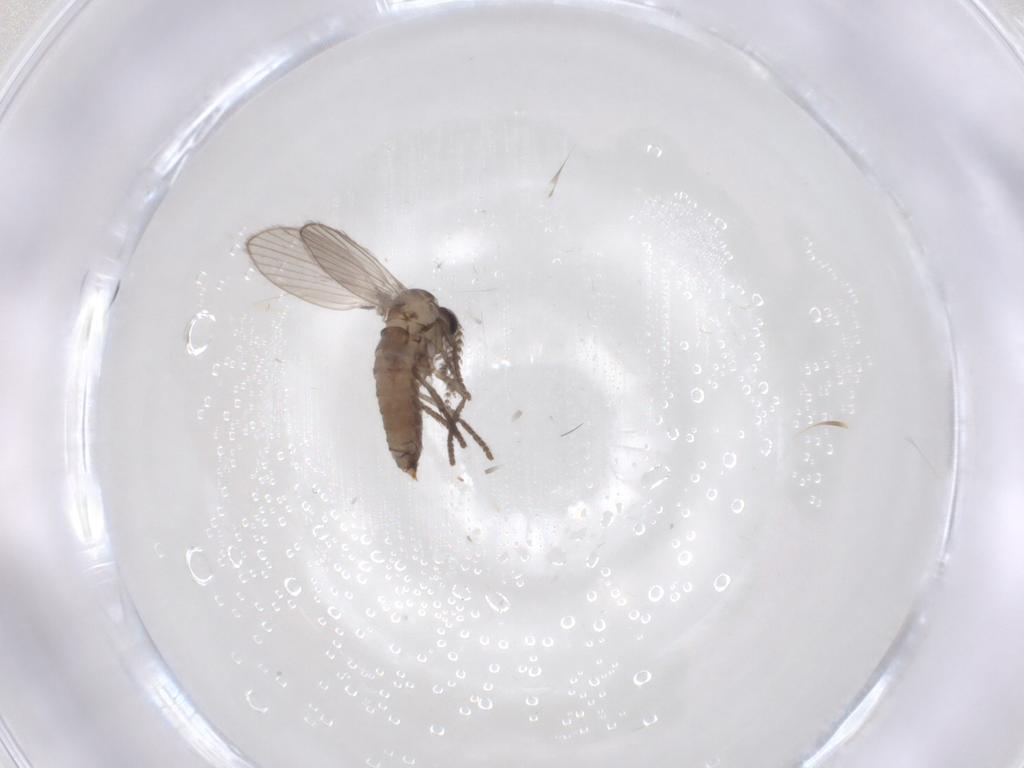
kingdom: Animalia
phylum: Arthropoda
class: Insecta
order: Diptera
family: Psychodidae
